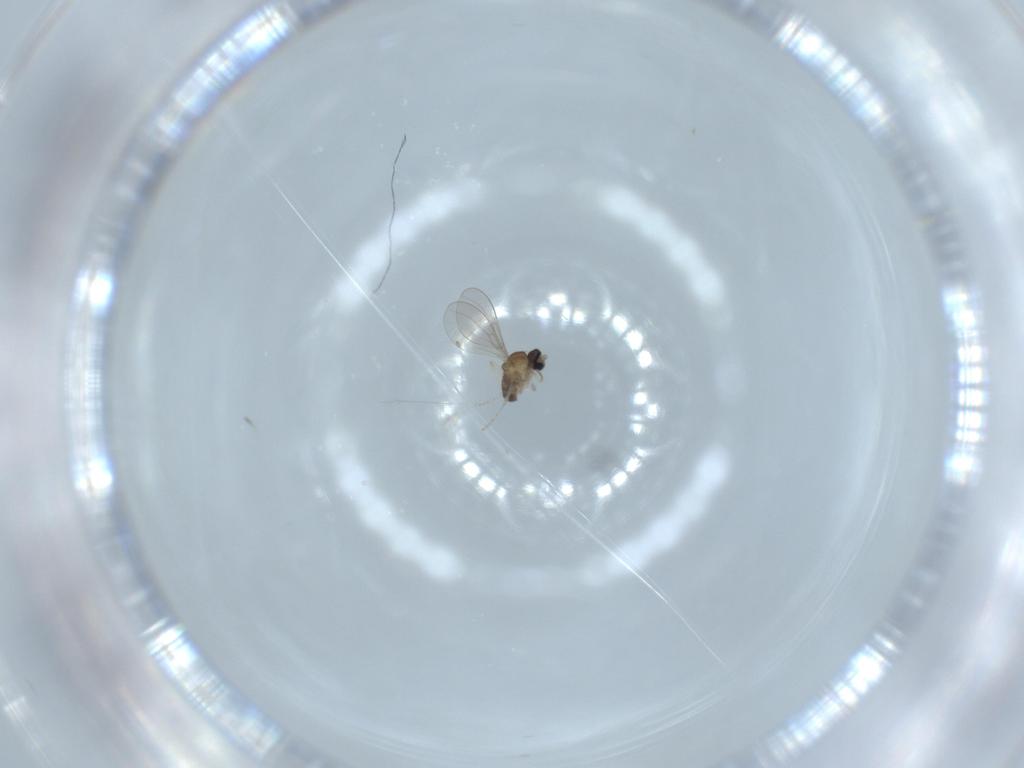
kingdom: Animalia
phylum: Arthropoda
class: Insecta
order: Diptera
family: Cecidomyiidae
